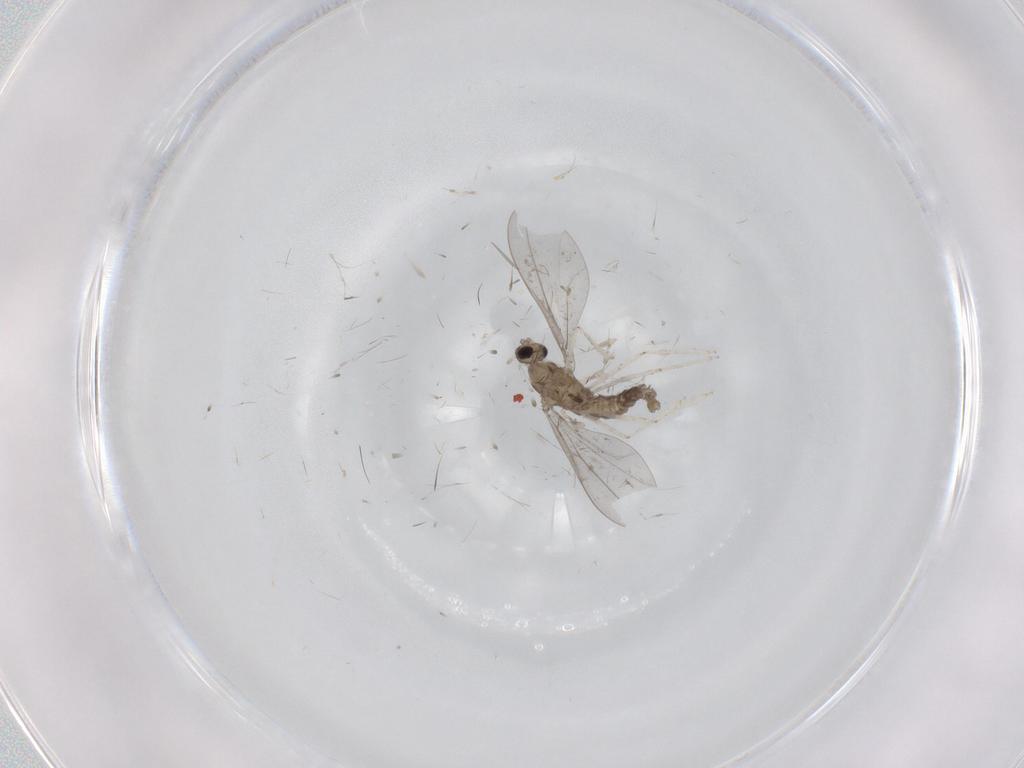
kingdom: Animalia
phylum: Arthropoda
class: Insecta
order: Diptera
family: Cecidomyiidae
